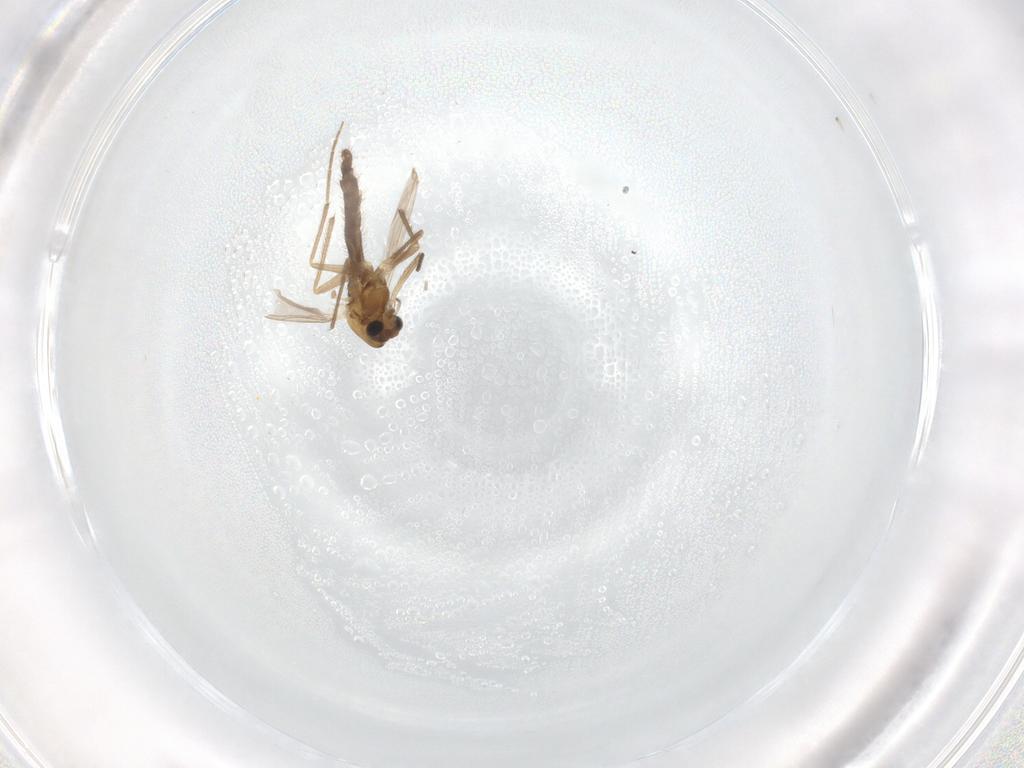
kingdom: Animalia
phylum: Arthropoda
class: Insecta
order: Diptera
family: Chironomidae
